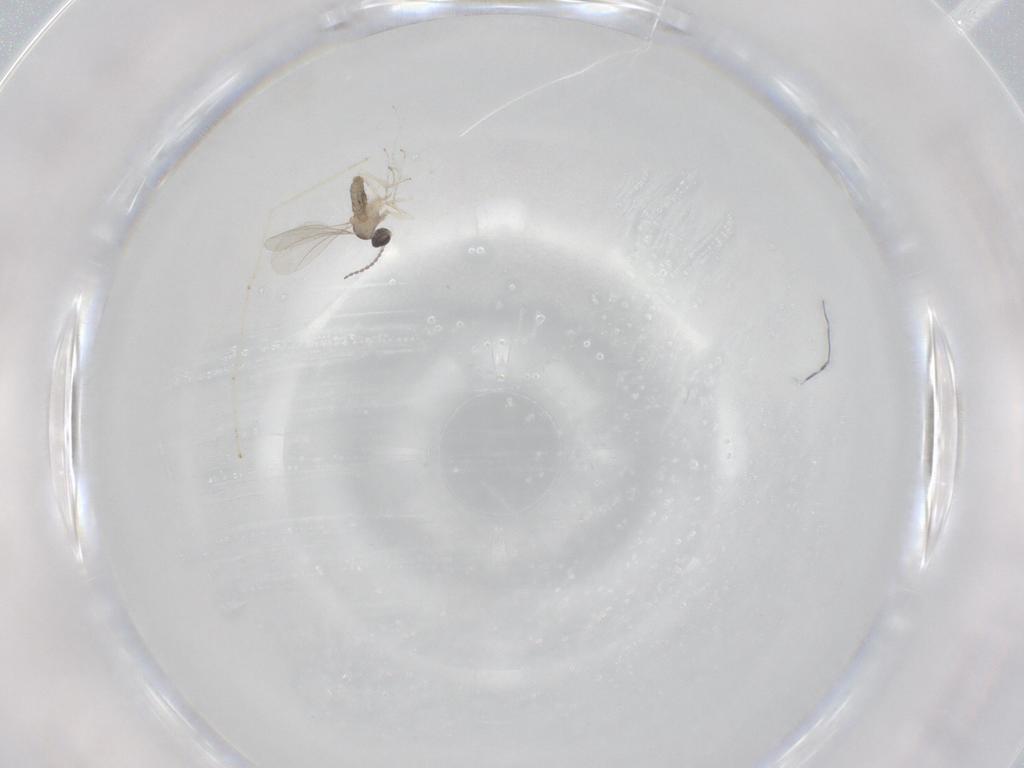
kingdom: Animalia
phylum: Arthropoda
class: Insecta
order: Diptera
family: Cecidomyiidae
